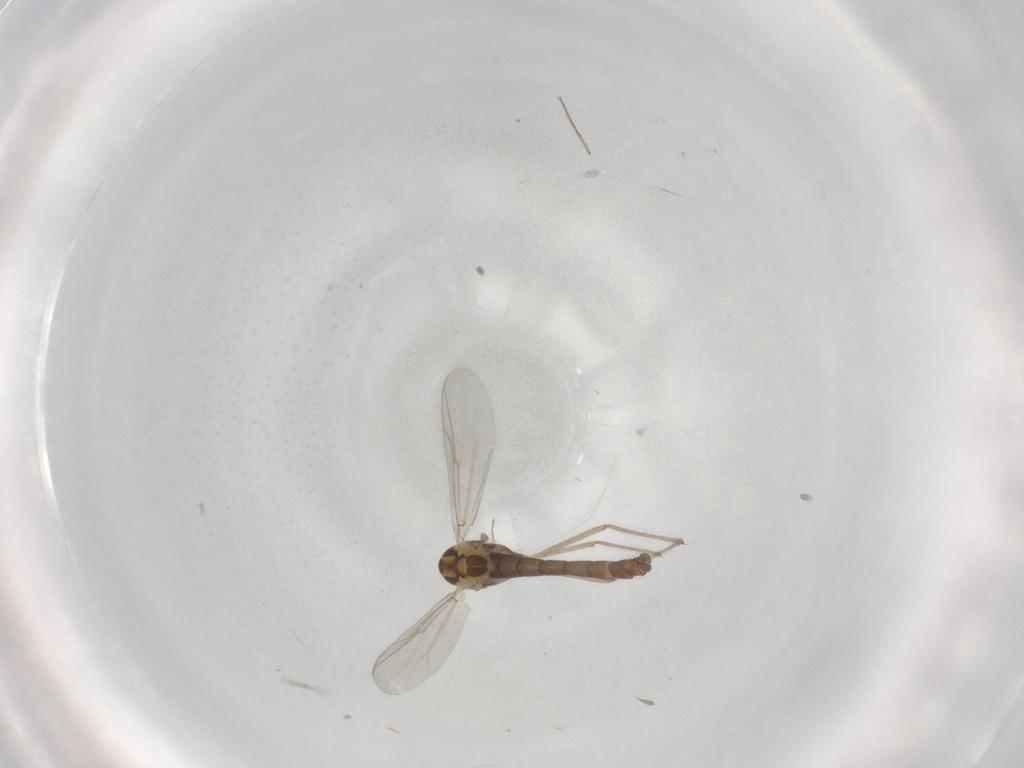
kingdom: Animalia
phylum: Arthropoda
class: Insecta
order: Diptera
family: Chironomidae
